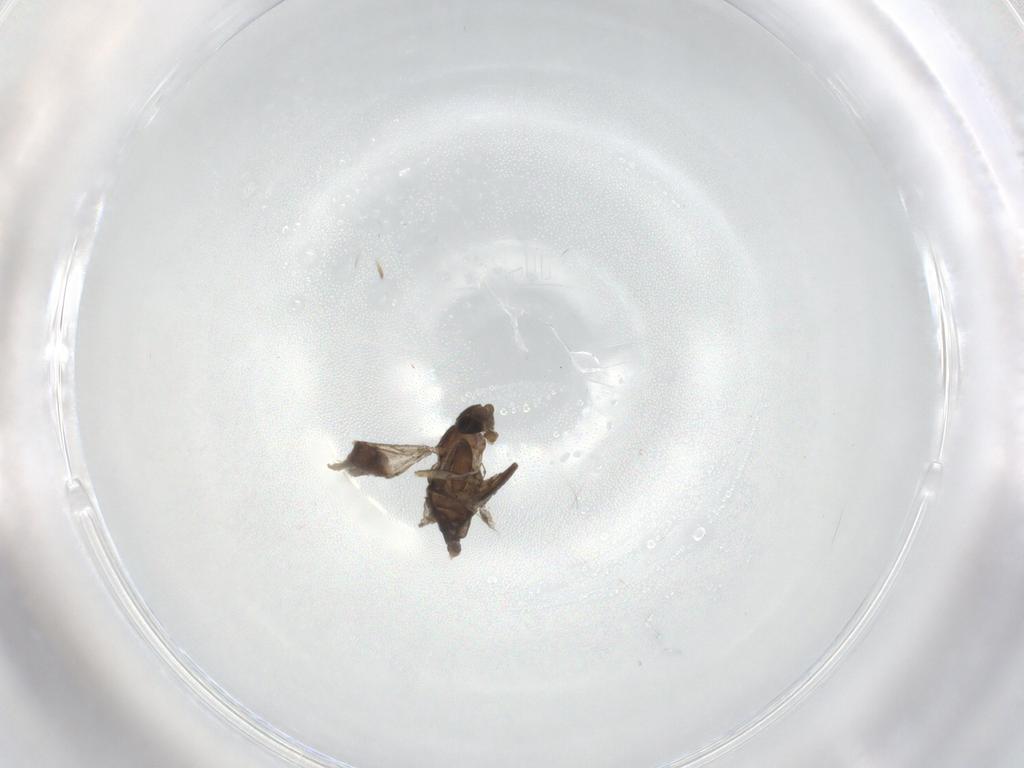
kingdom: Animalia
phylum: Arthropoda
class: Insecta
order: Diptera
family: Phoridae
